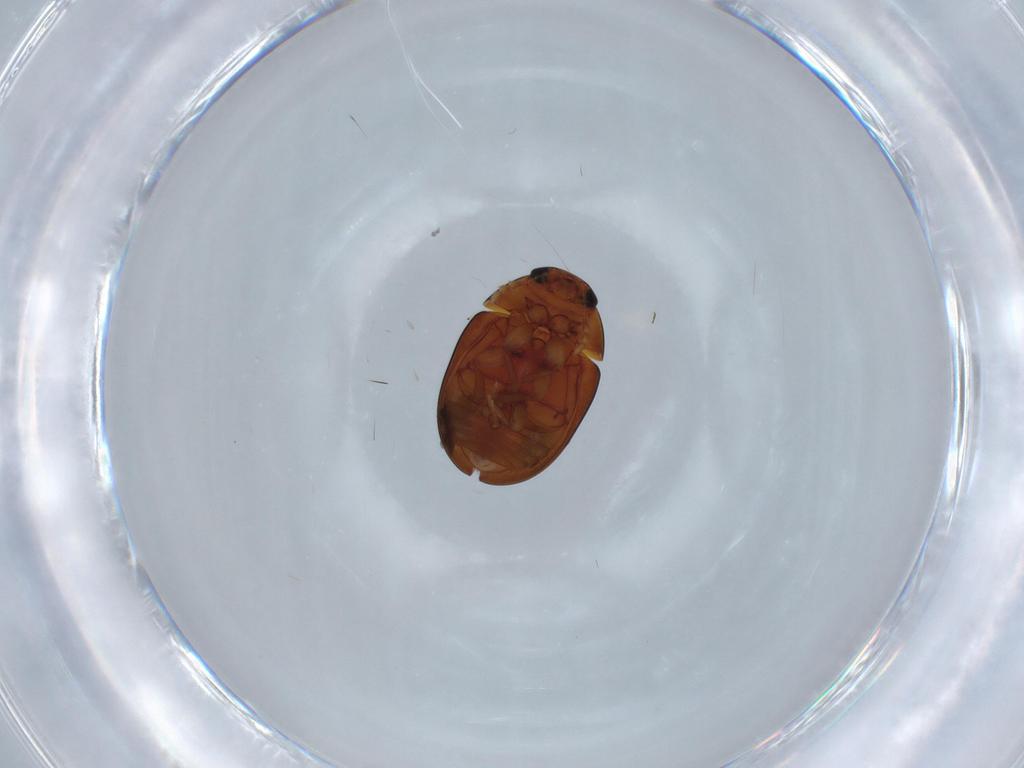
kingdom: Animalia
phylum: Arthropoda
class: Insecta
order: Coleoptera
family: Phalacridae
